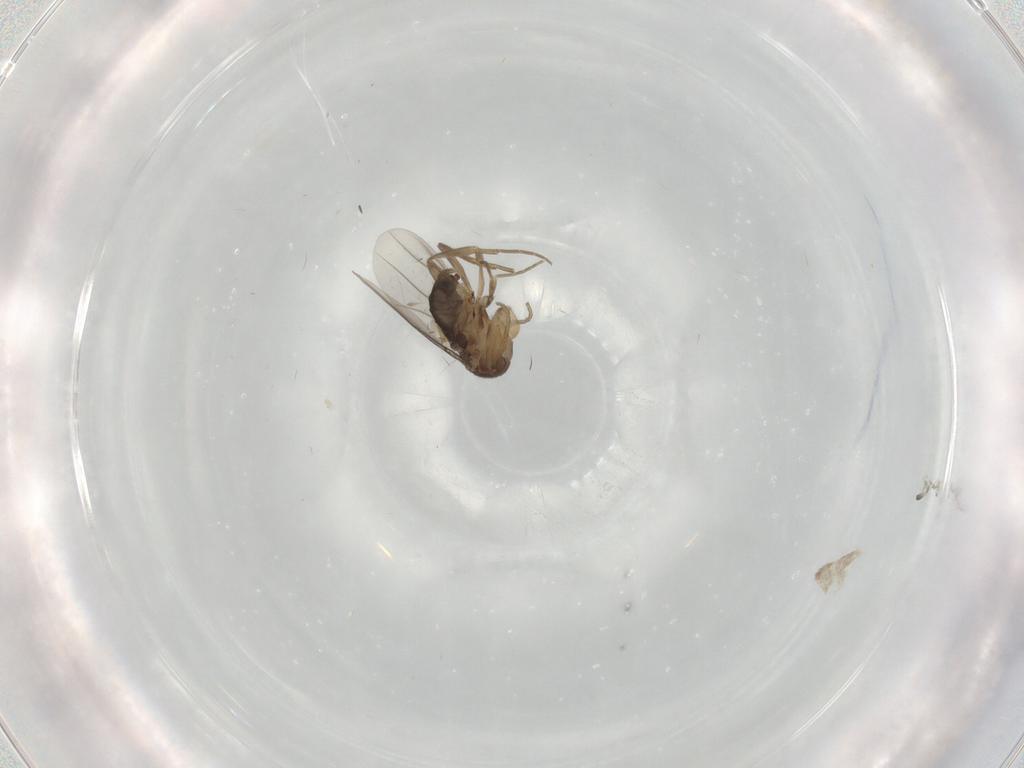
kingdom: Animalia
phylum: Arthropoda
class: Insecta
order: Diptera
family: Phoridae
